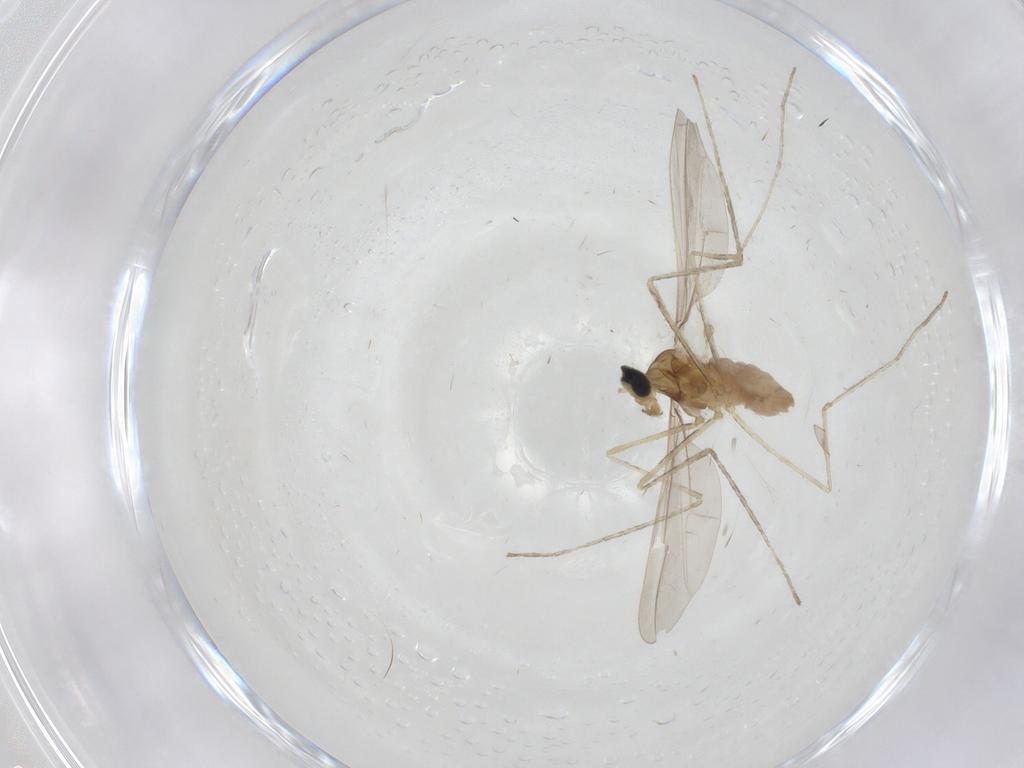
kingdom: Animalia
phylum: Arthropoda
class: Insecta
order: Diptera
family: Cecidomyiidae
